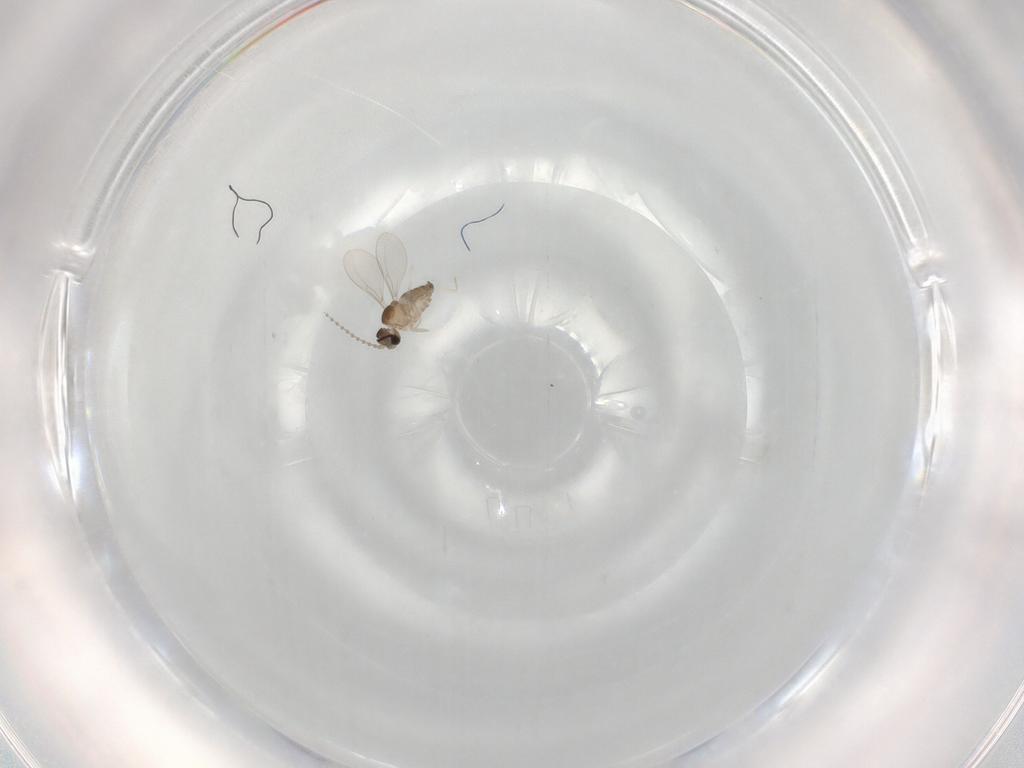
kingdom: Animalia
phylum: Arthropoda
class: Insecta
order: Diptera
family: Cecidomyiidae
